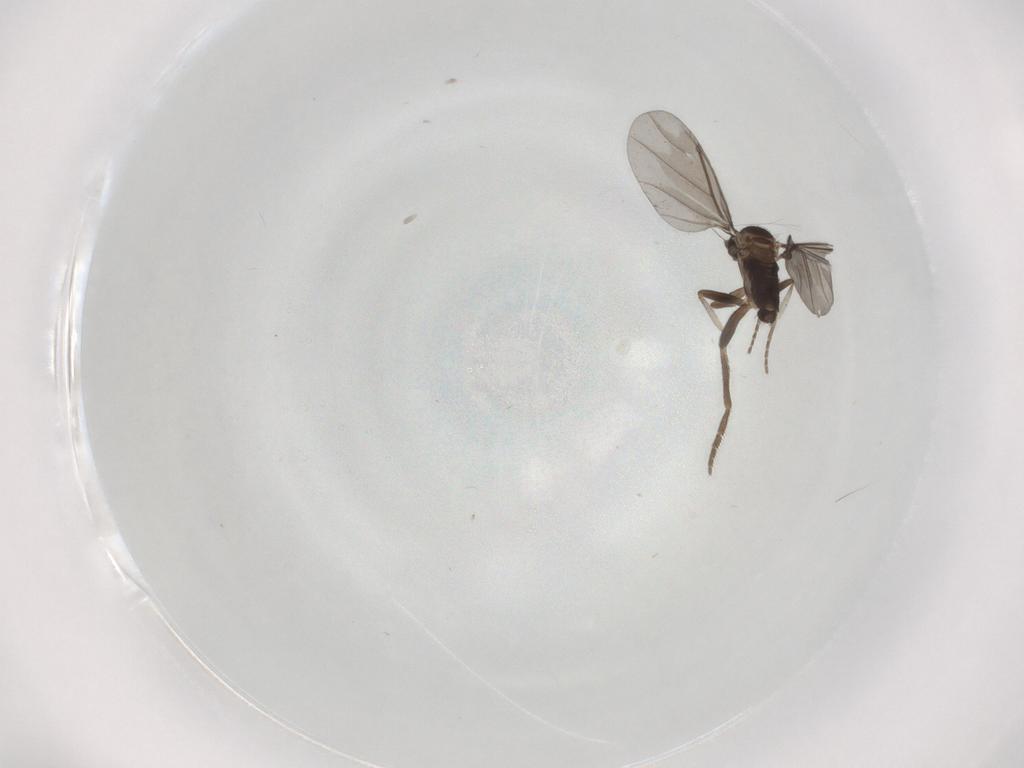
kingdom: Animalia
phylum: Arthropoda
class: Insecta
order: Diptera
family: Phoridae
